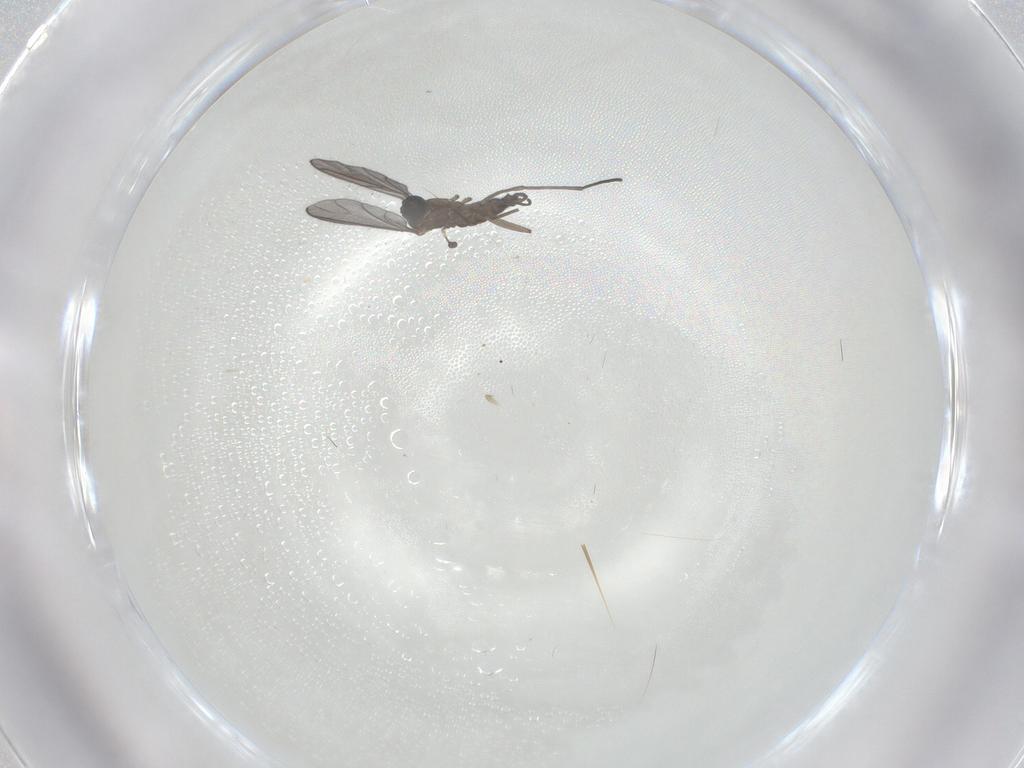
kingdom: Animalia
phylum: Arthropoda
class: Insecta
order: Diptera
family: Sciaridae
